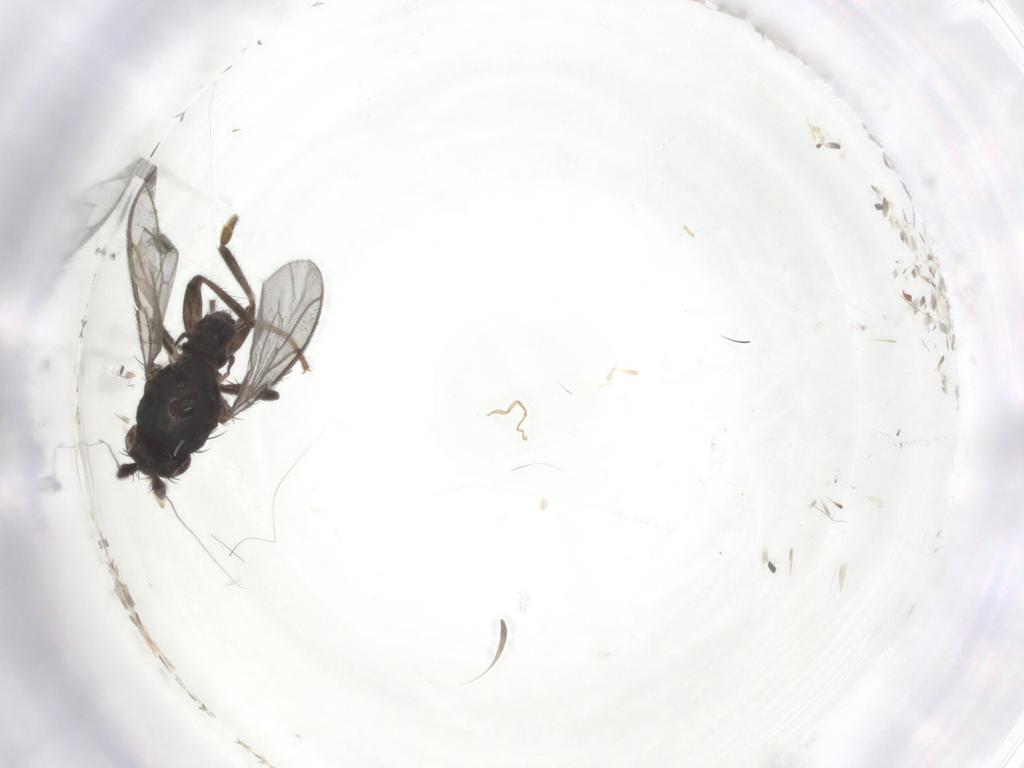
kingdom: Animalia
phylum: Arthropoda
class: Insecta
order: Diptera
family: Sphaeroceridae
